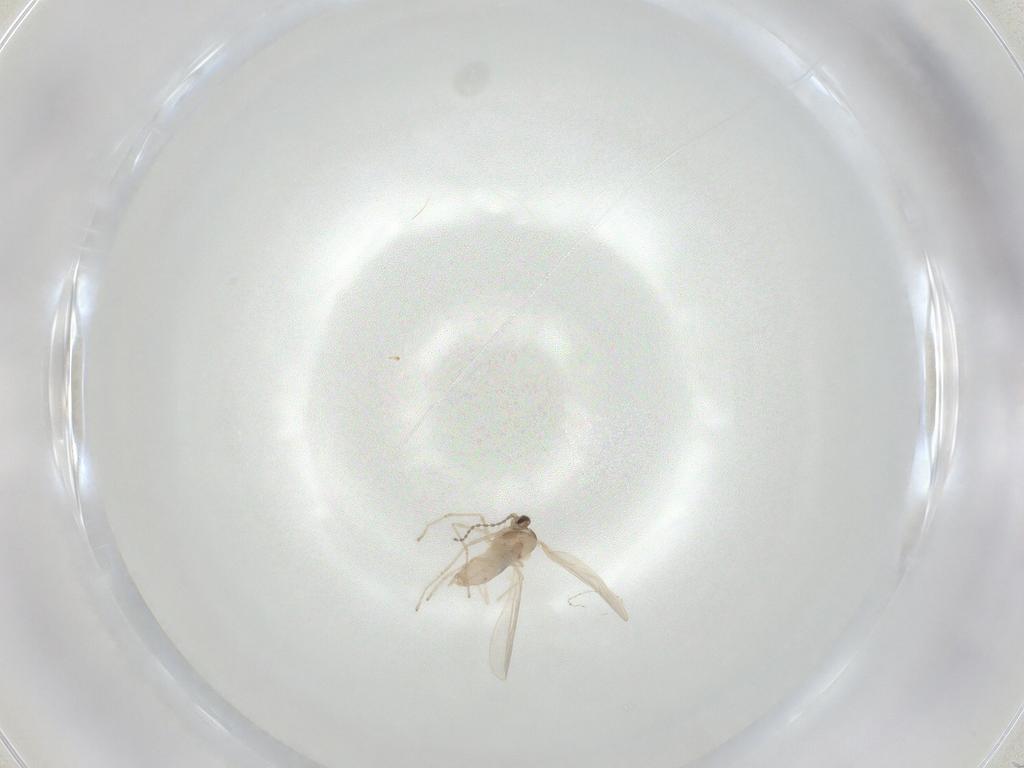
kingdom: Animalia
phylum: Arthropoda
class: Insecta
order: Diptera
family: Cecidomyiidae
